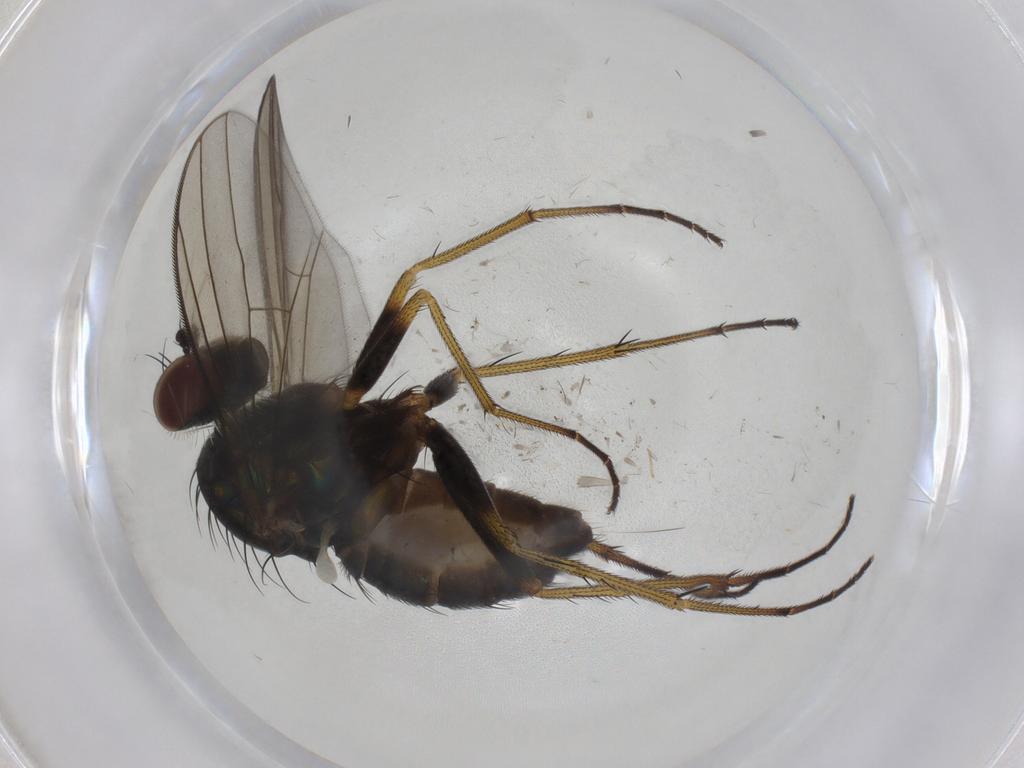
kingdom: Animalia
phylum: Arthropoda
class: Insecta
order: Diptera
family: Dolichopodidae
